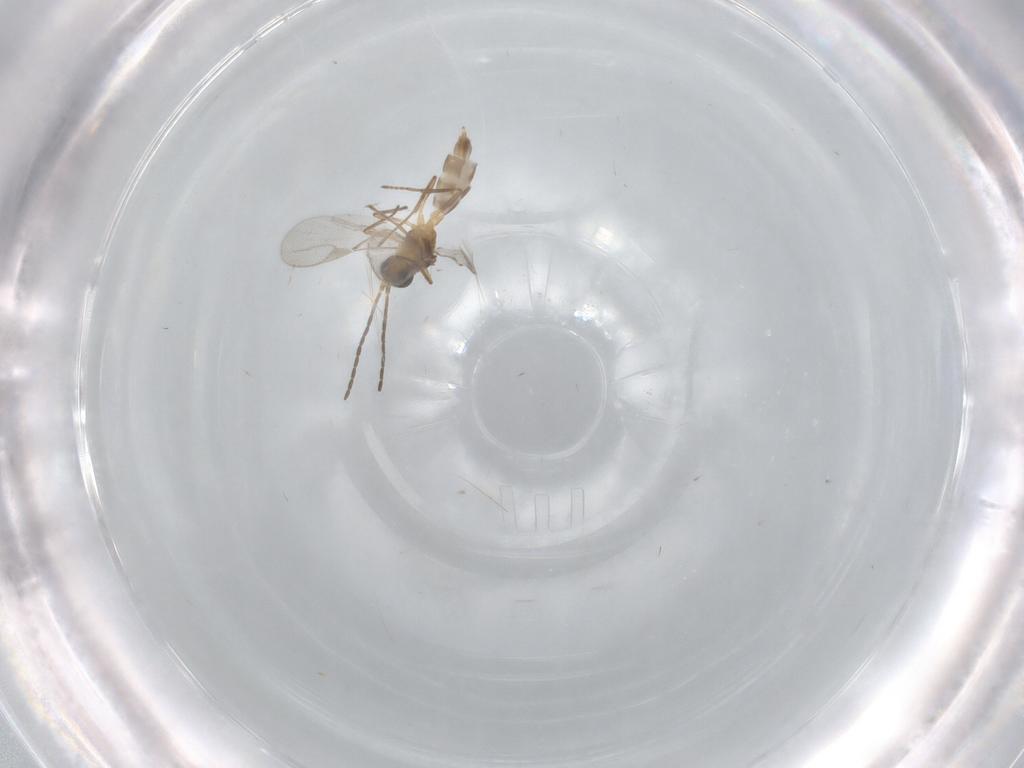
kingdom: Animalia
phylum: Arthropoda
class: Insecta
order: Hymenoptera
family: Braconidae
